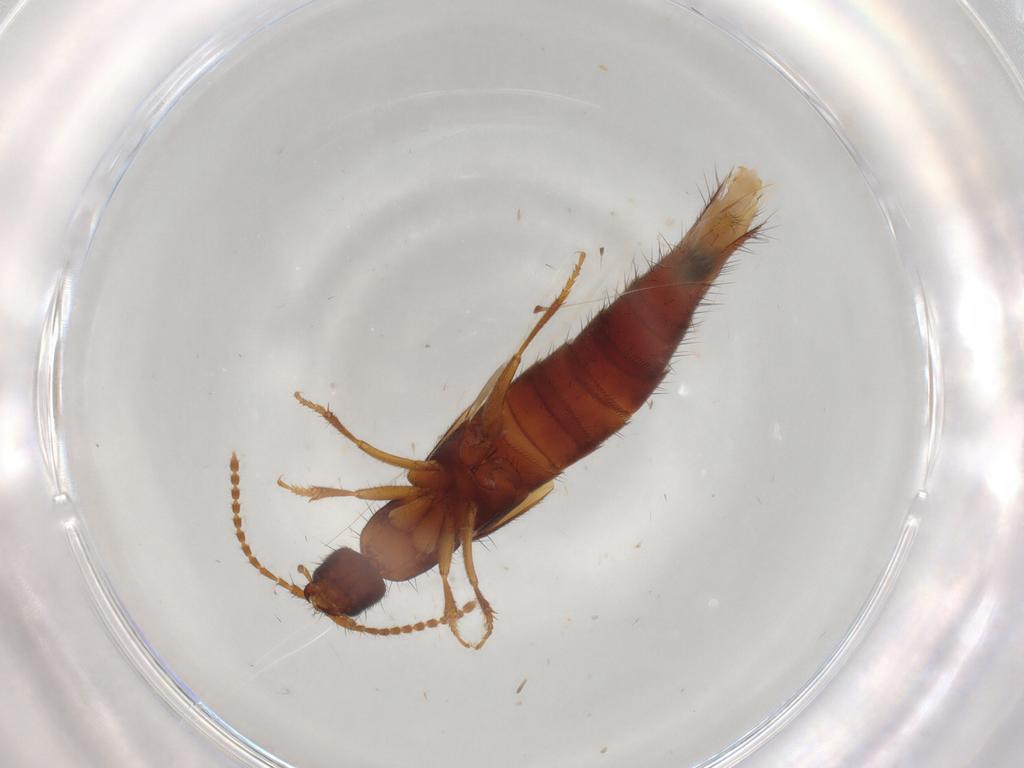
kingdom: Animalia
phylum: Arthropoda
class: Insecta
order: Coleoptera
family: Staphylinidae
